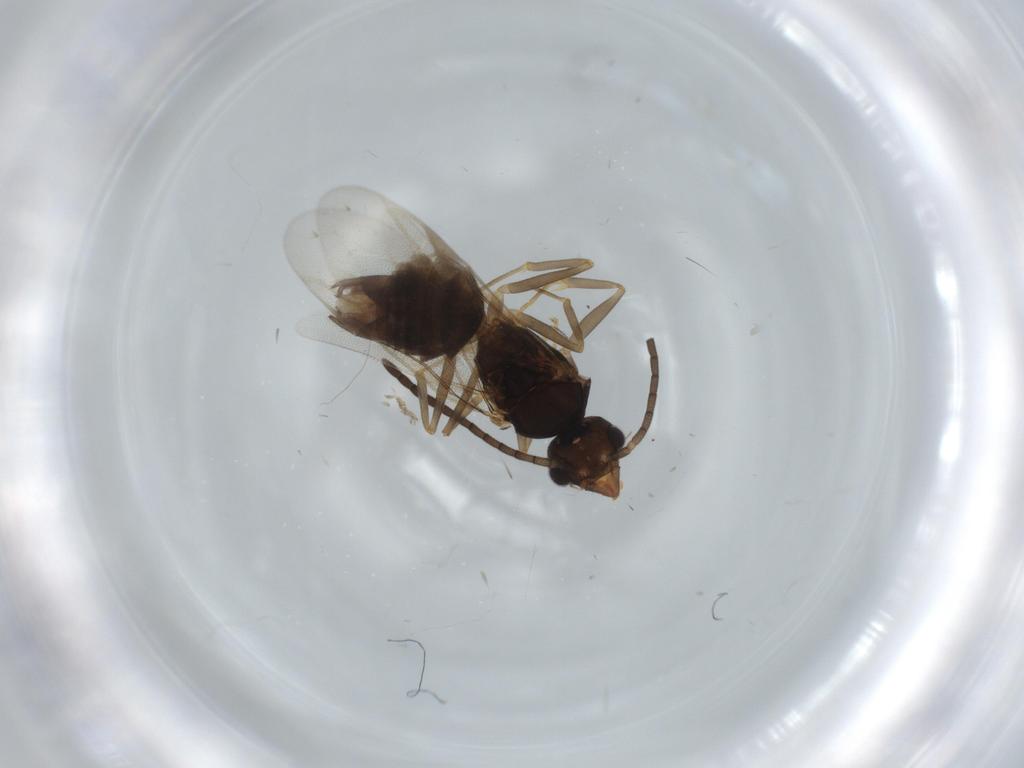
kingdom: Animalia
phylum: Arthropoda
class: Insecta
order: Hymenoptera
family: Formicidae
